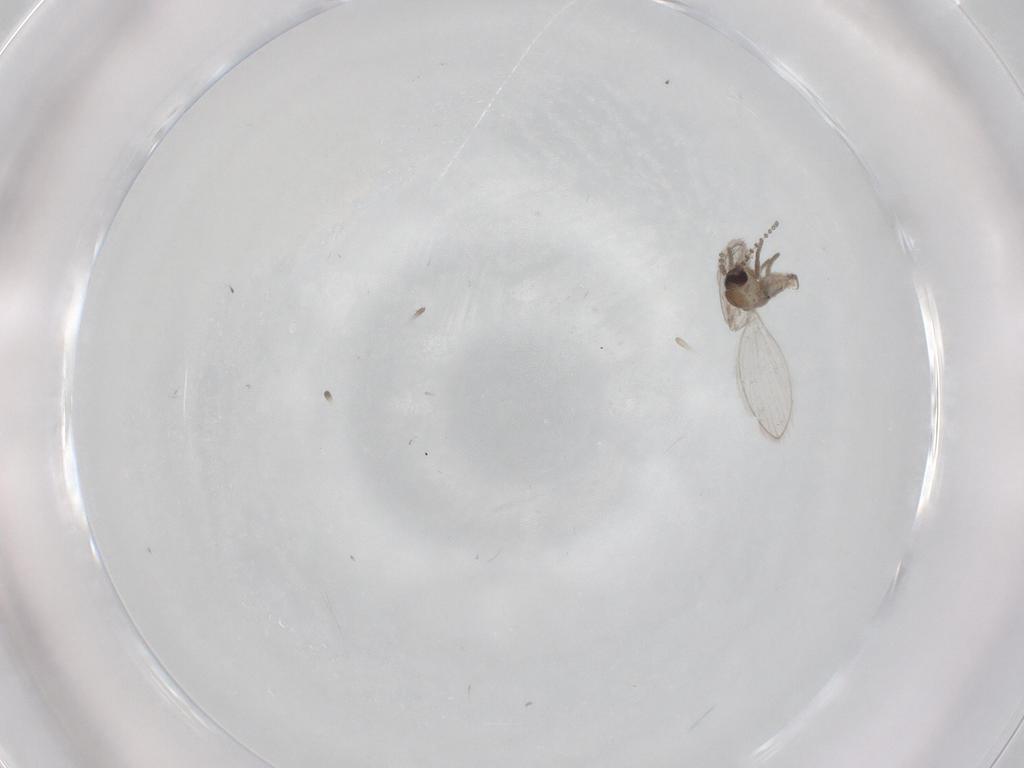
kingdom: Animalia
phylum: Arthropoda
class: Insecta
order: Diptera
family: Psychodidae
